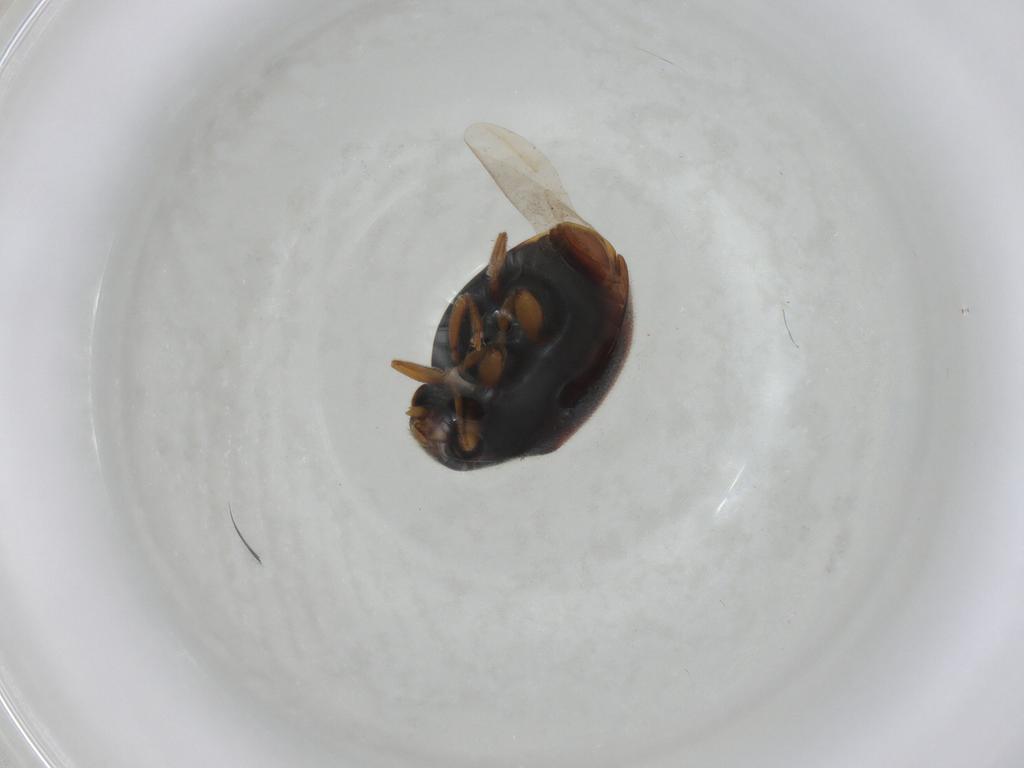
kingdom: Animalia
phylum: Arthropoda
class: Insecta
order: Coleoptera
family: Coccinellidae
